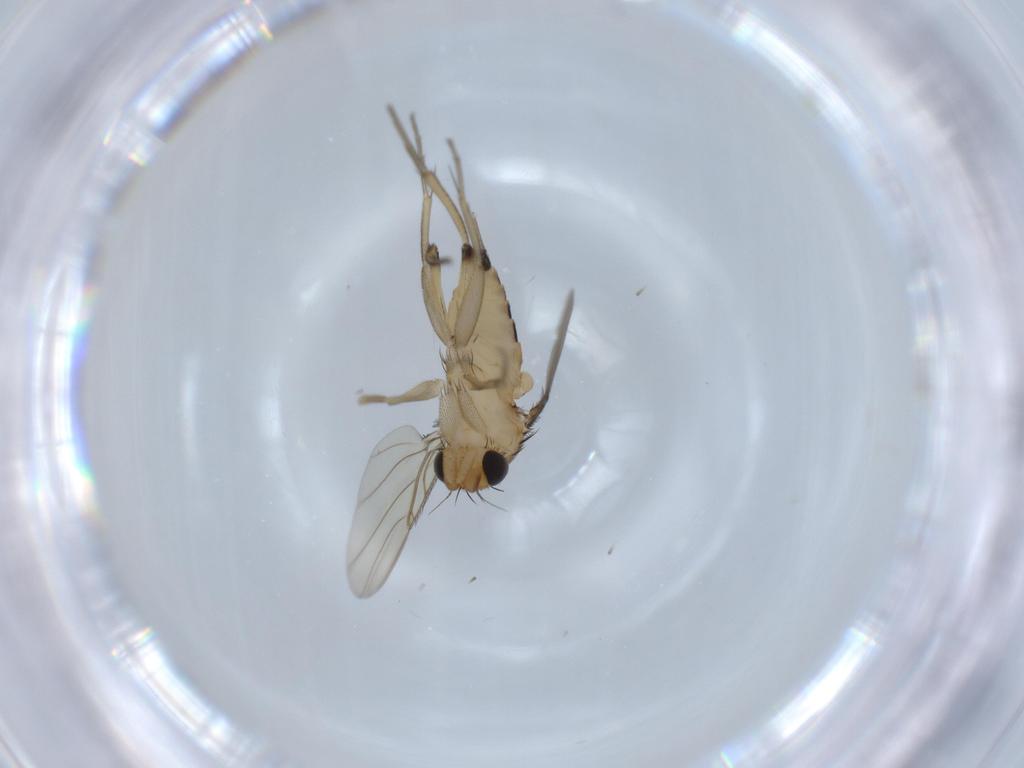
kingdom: Animalia
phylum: Arthropoda
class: Insecta
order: Diptera
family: Phoridae
